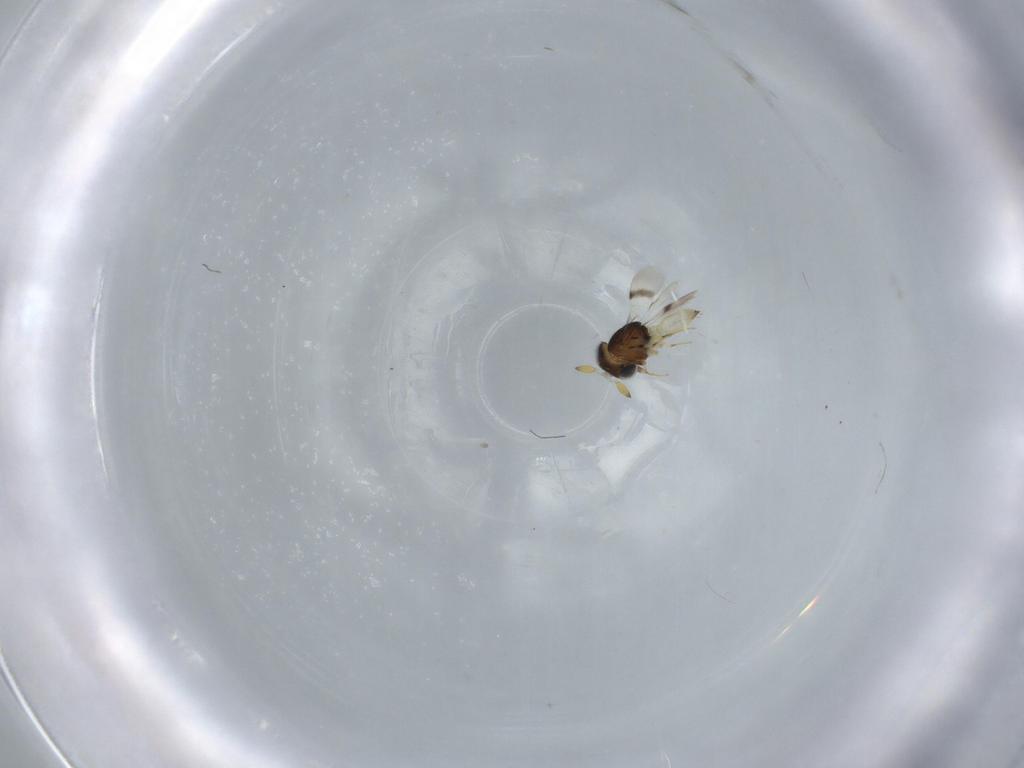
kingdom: Animalia
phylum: Arthropoda
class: Insecta
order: Hymenoptera
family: Scelionidae
